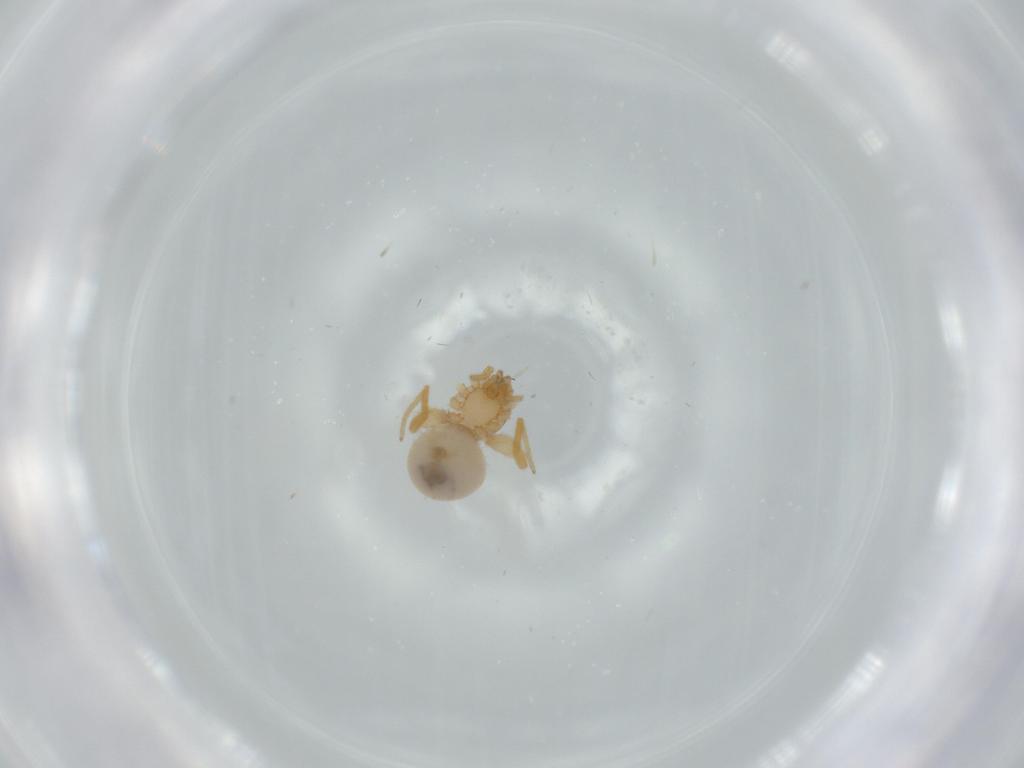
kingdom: Animalia
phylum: Arthropoda
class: Arachnida
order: Araneae
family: Oonopidae
